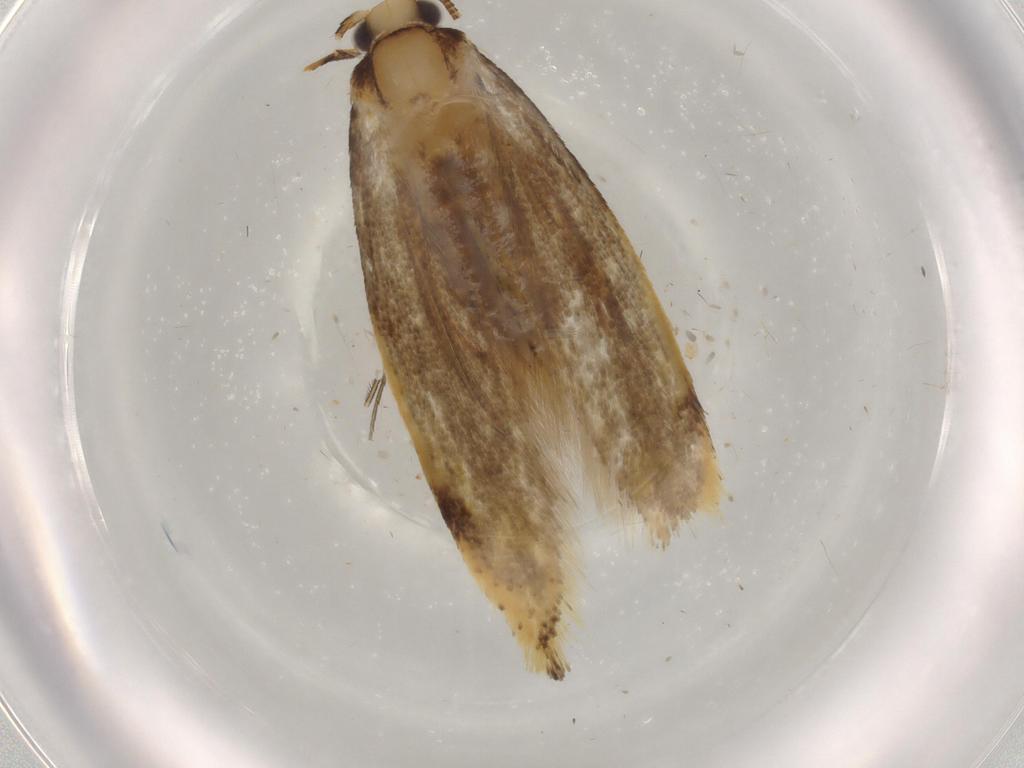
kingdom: Animalia
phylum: Arthropoda
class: Insecta
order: Lepidoptera
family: Tineidae
